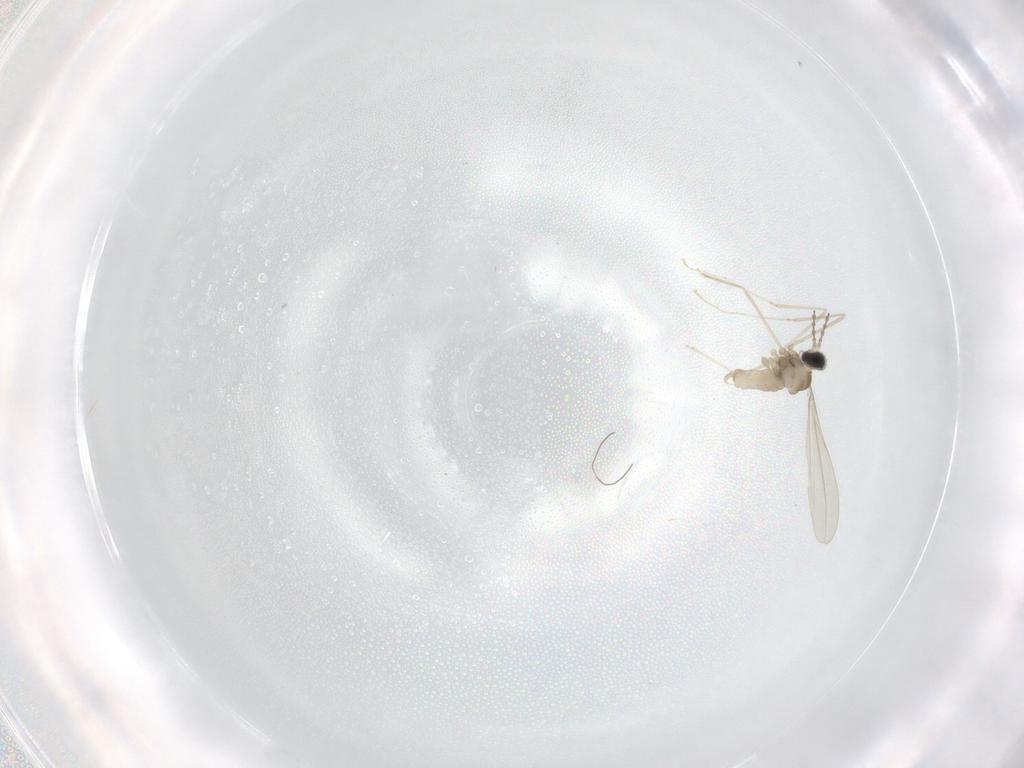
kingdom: Animalia
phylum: Arthropoda
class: Insecta
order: Diptera
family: Cecidomyiidae
